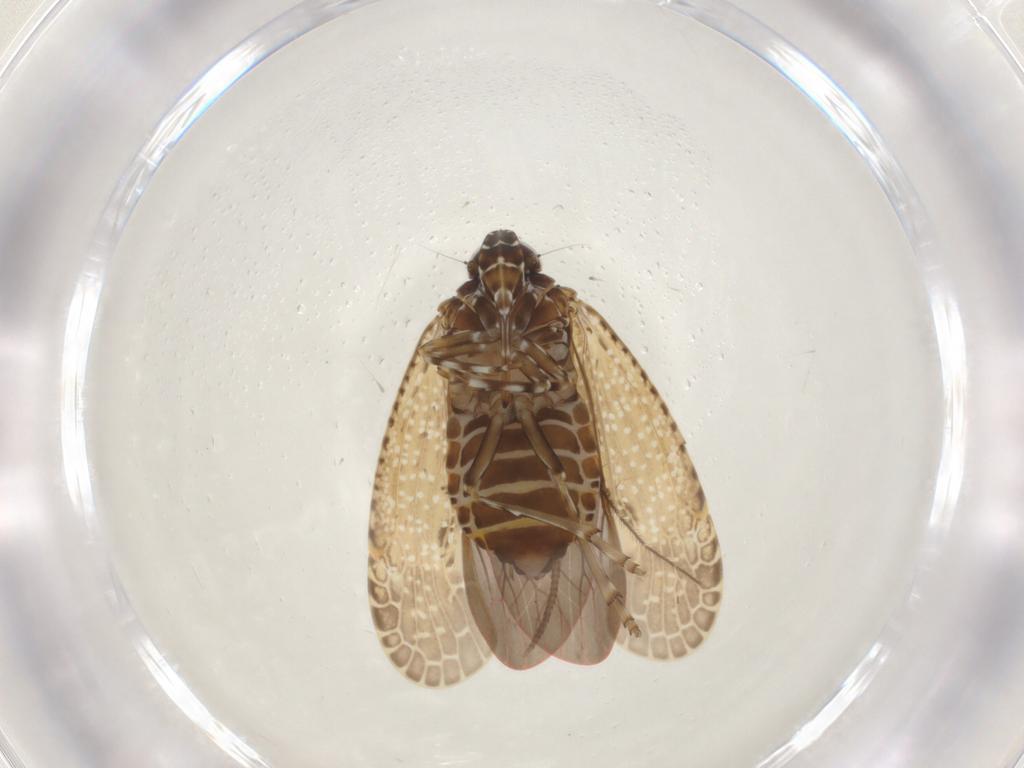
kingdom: Animalia
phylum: Arthropoda
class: Insecta
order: Hemiptera
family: Achilidae
